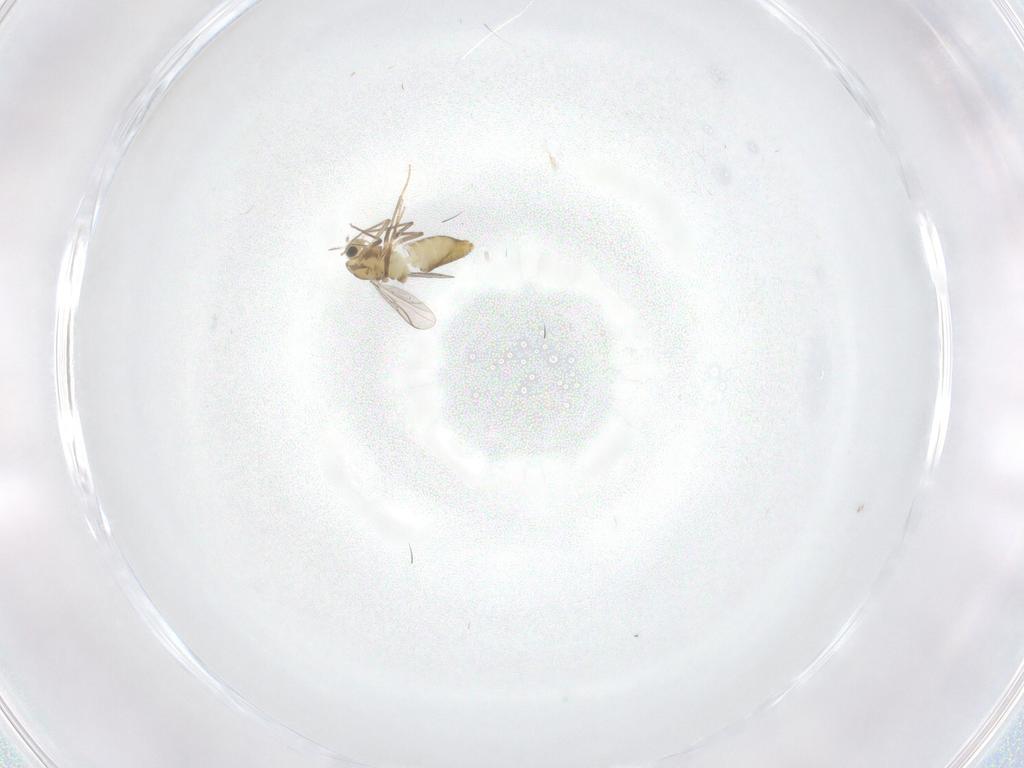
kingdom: Animalia
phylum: Arthropoda
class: Insecta
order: Diptera
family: Chironomidae
